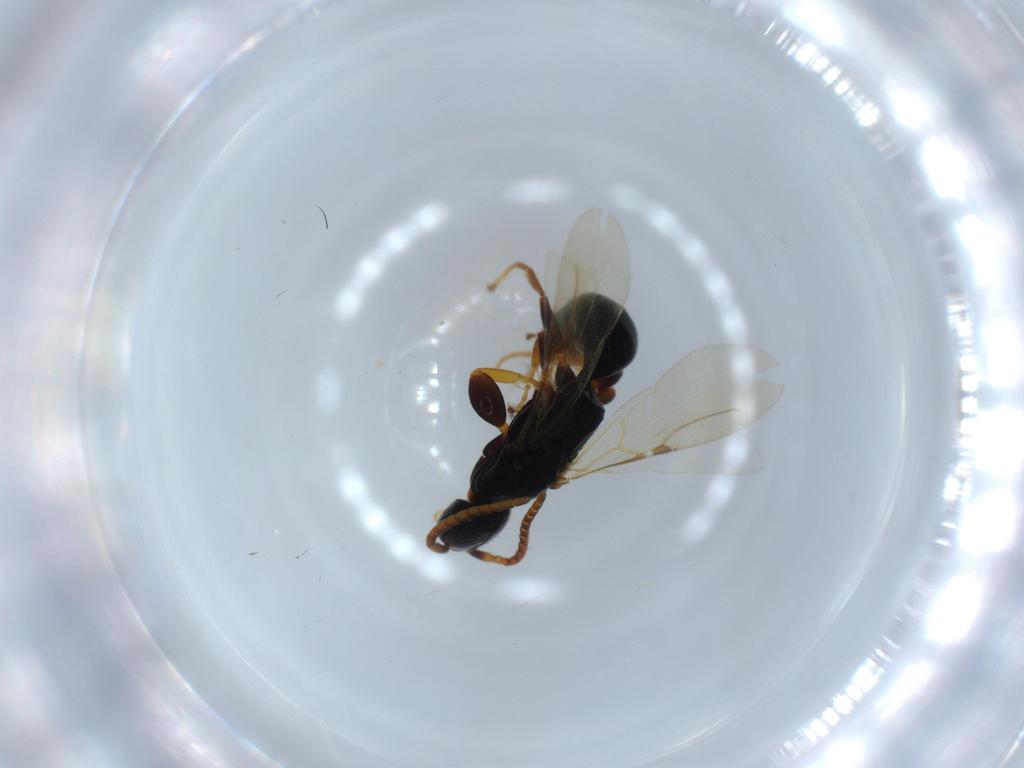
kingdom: Animalia
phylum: Arthropoda
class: Insecta
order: Hymenoptera
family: Bethylidae
